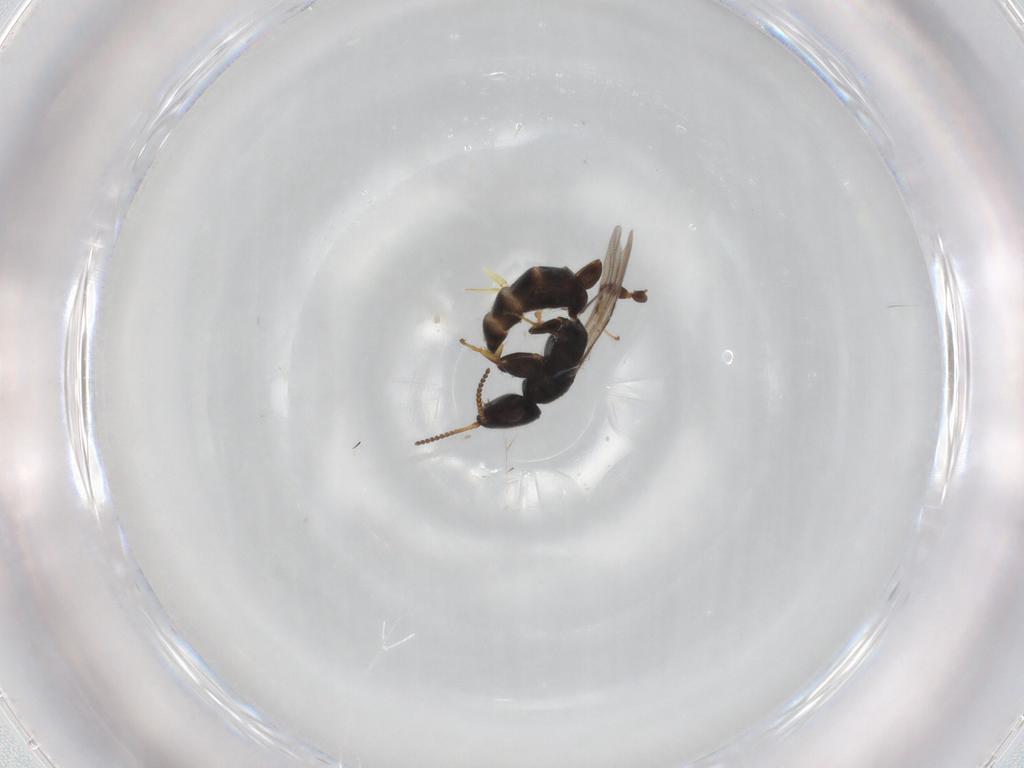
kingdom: Animalia
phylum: Arthropoda
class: Insecta
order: Hymenoptera
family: Bethylidae
